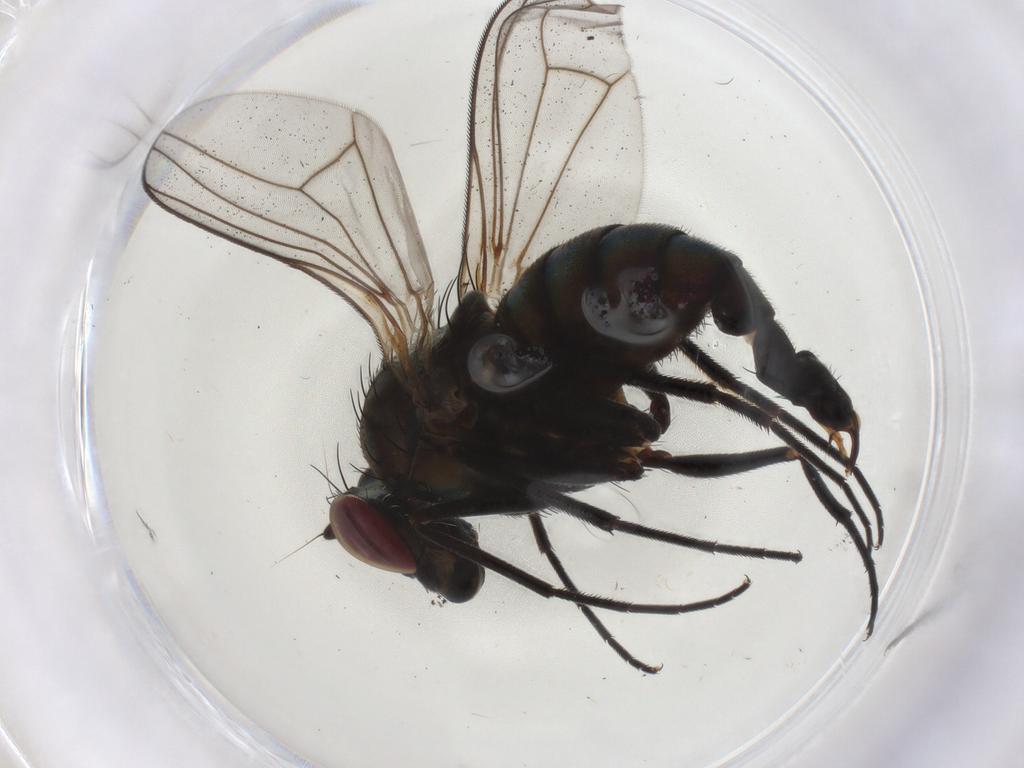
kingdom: Animalia
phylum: Arthropoda
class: Insecta
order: Diptera
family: Dolichopodidae
